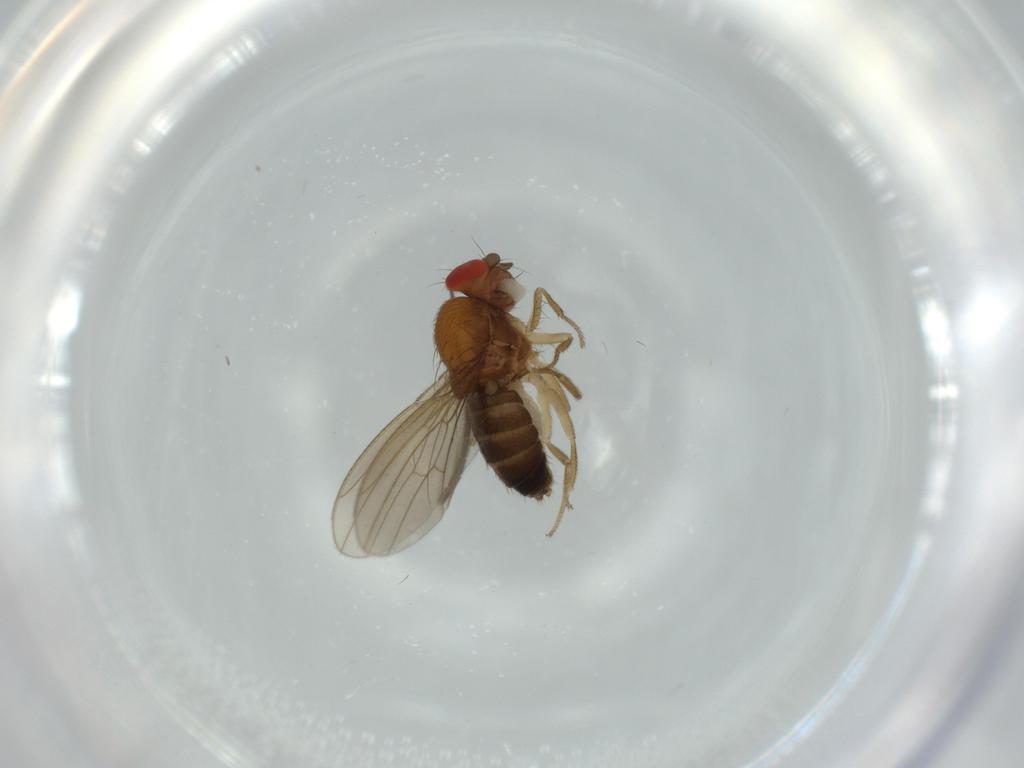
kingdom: Animalia
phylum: Arthropoda
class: Insecta
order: Diptera
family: Drosophilidae
